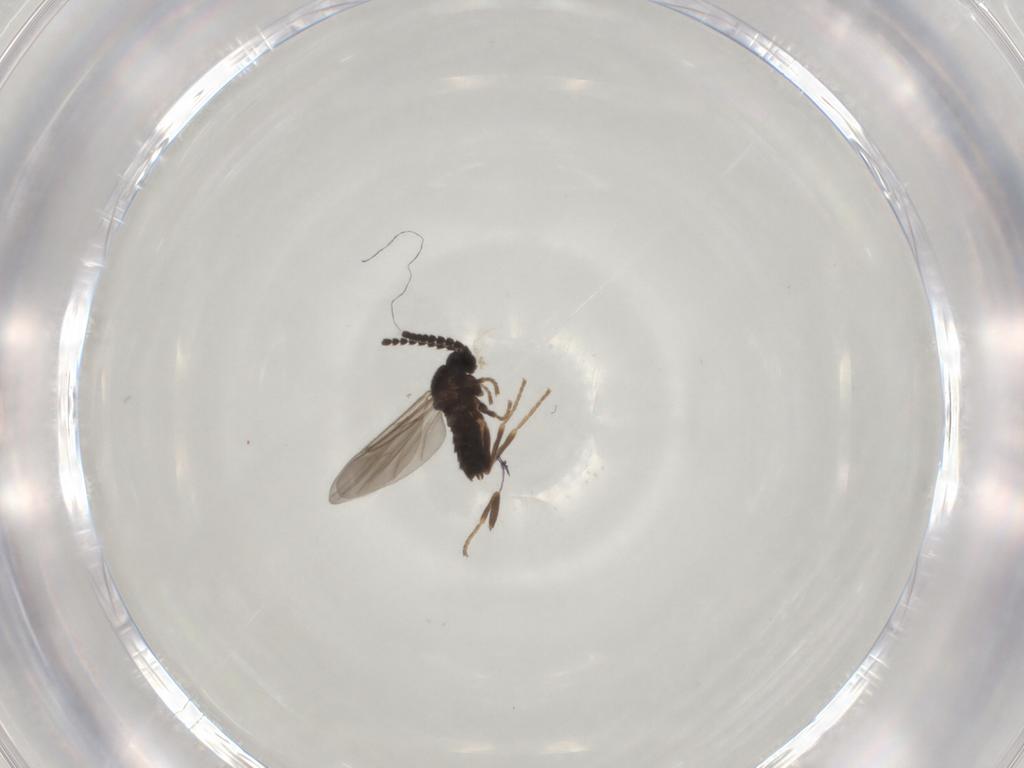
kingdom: Animalia
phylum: Arthropoda
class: Insecta
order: Diptera
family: Scatopsidae
